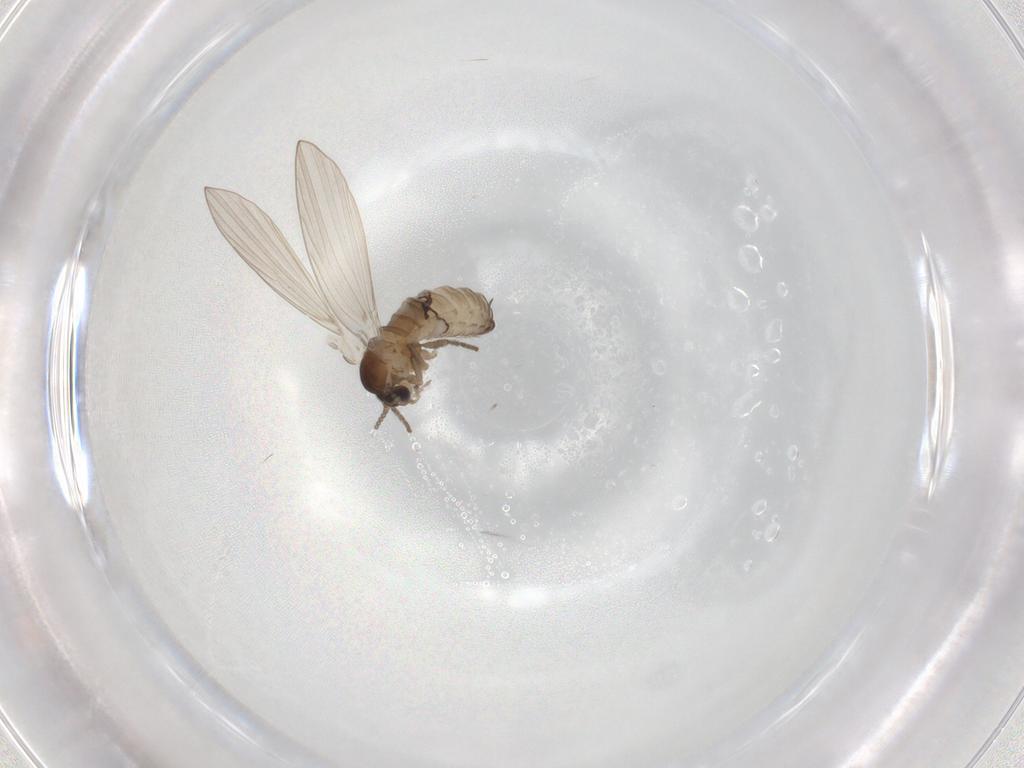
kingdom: Animalia
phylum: Arthropoda
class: Insecta
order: Diptera
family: Psychodidae
